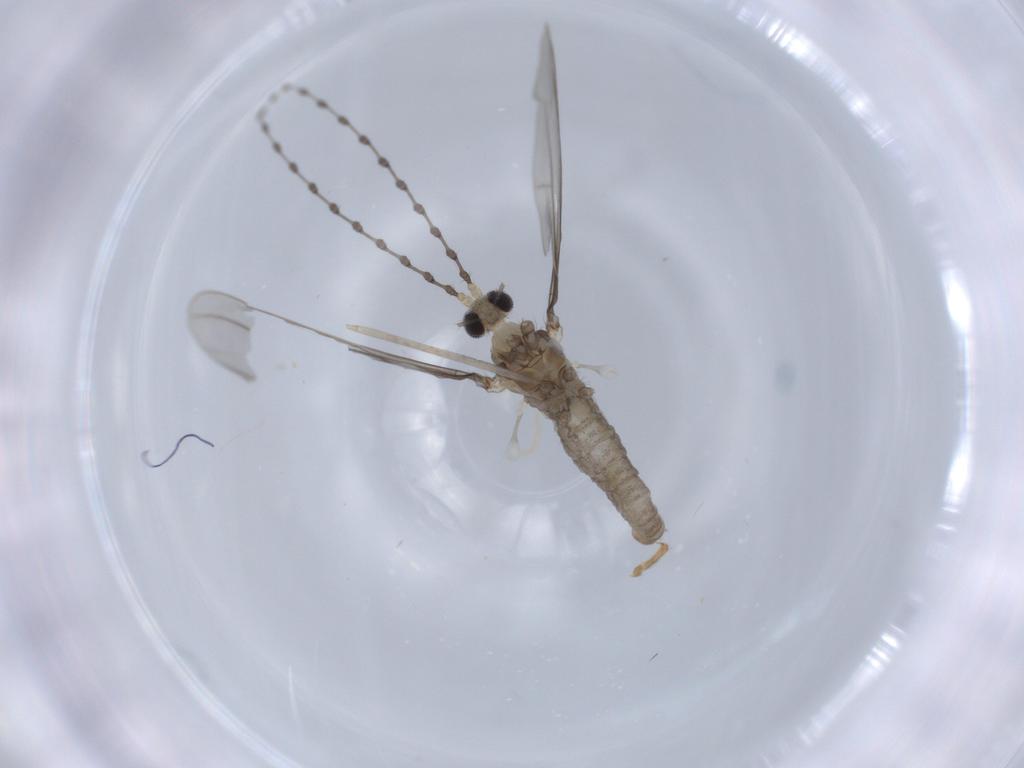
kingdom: Animalia
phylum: Arthropoda
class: Insecta
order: Diptera
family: Cecidomyiidae
